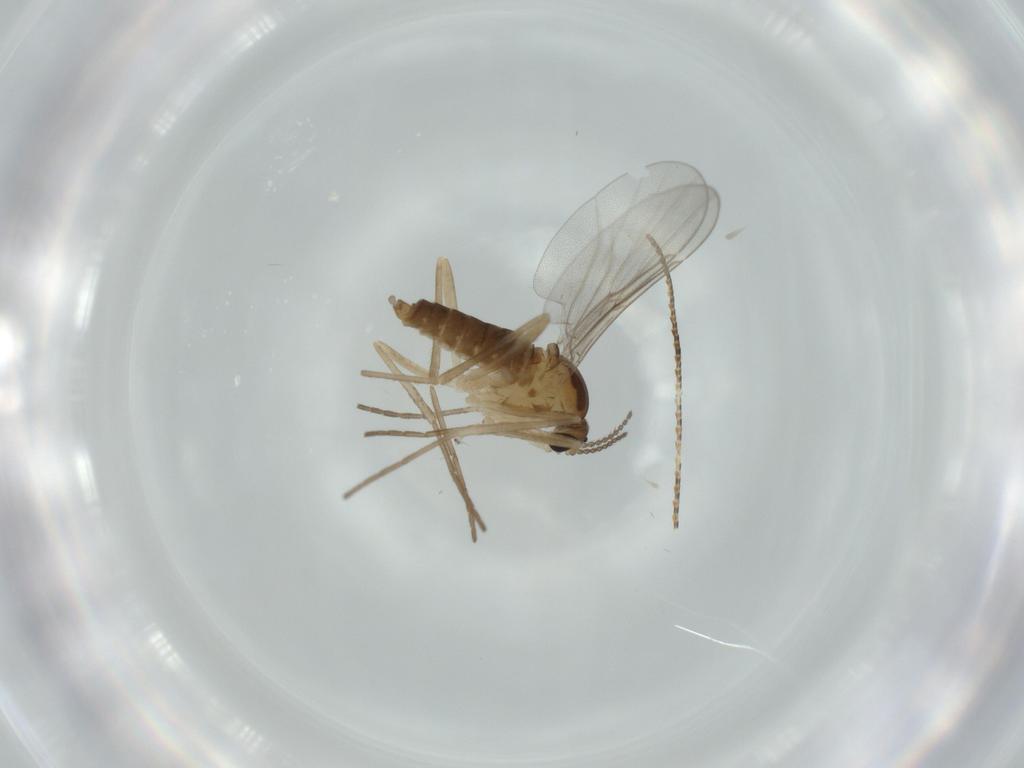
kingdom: Animalia
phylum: Arthropoda
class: Insecta
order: Diptera
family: Cecidomyiidae
